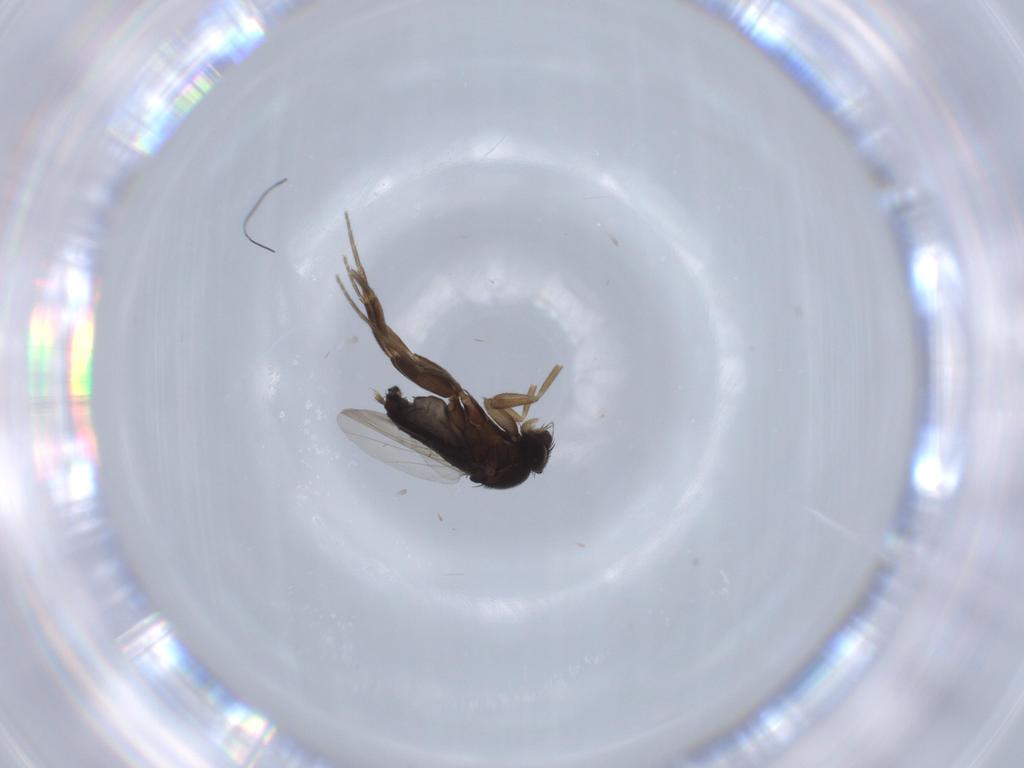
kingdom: Animalia
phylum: Arthropoda
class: Insecta
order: Diptera
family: Phoridae
